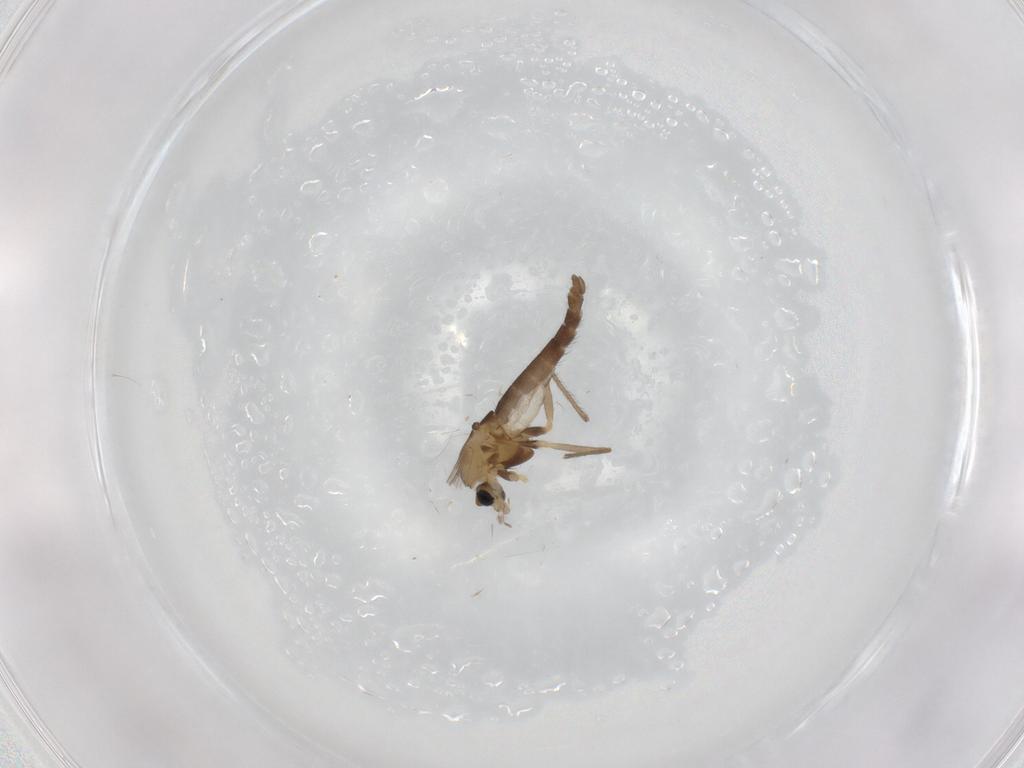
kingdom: Animalia
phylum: Arthropoda
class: Insecta
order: Diptera
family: Chironomidae
